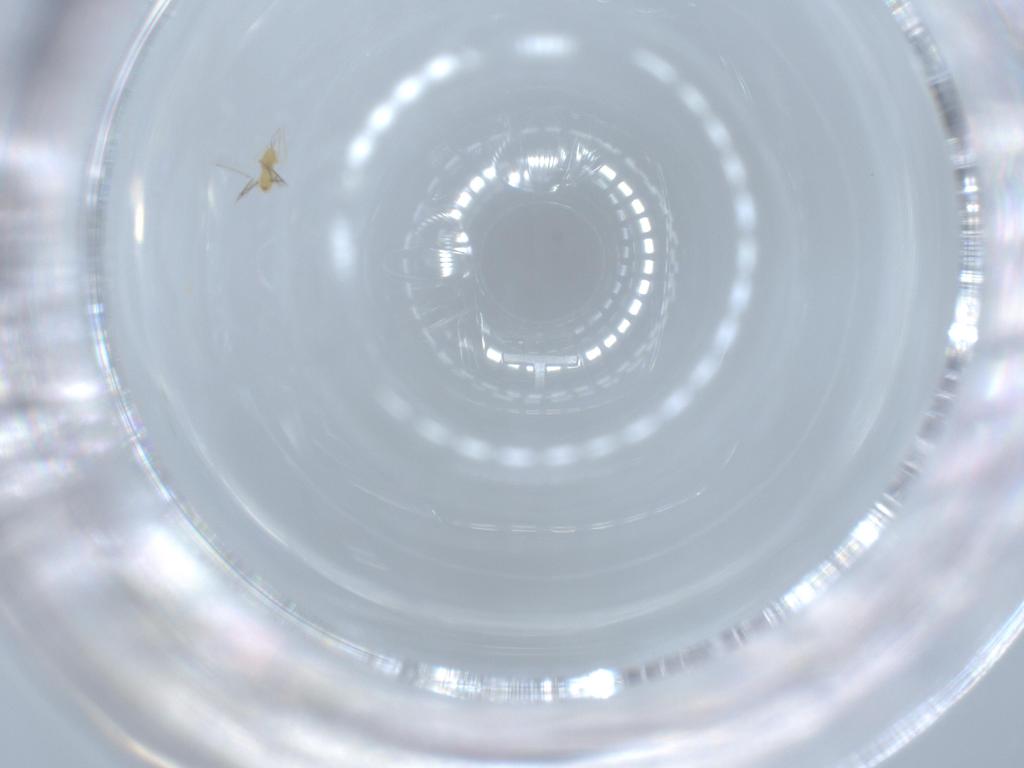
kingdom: Animalia
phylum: Arthropoda
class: Insecta
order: Hymenoptera
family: Mymaridae
